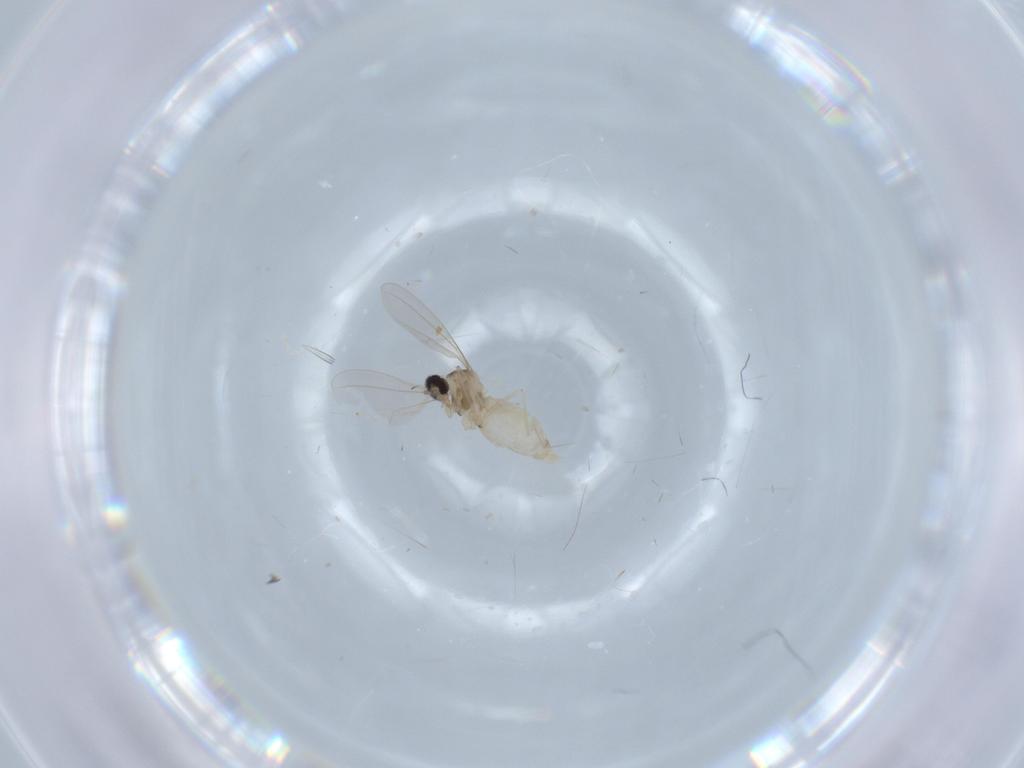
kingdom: Animalia
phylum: Arthropoda
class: Insecta
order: Diptera
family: Cecidomyiidae
